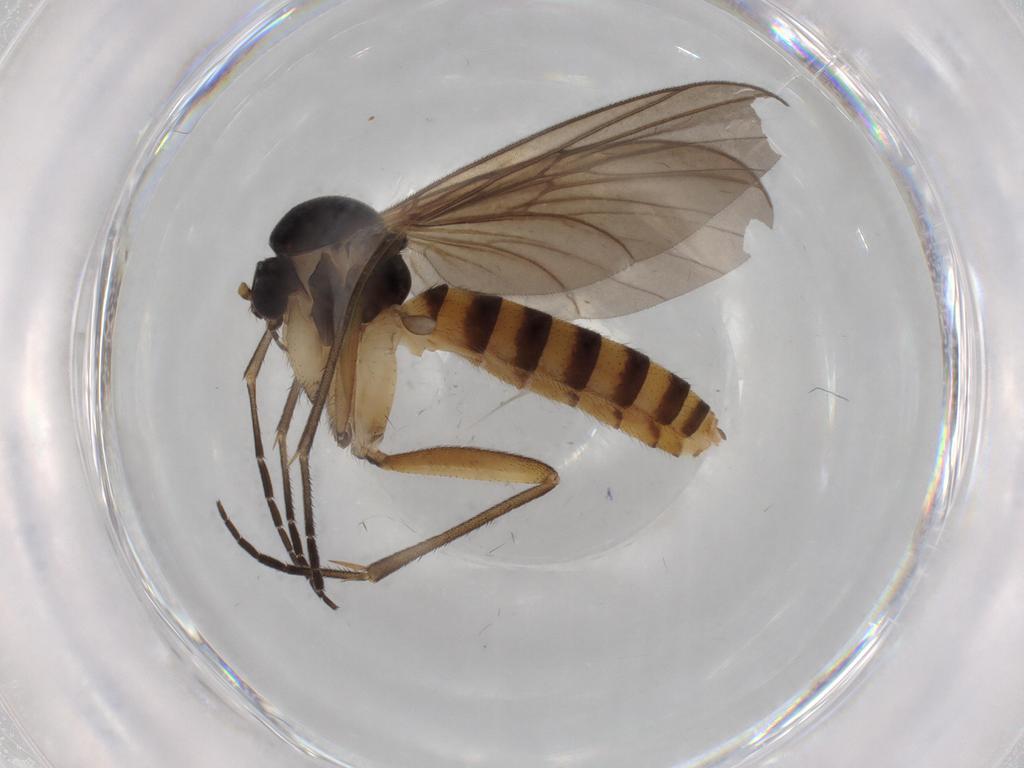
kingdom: Animalia
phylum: Arthropoda
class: Insecta
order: Diptera
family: Mycetophilidae
